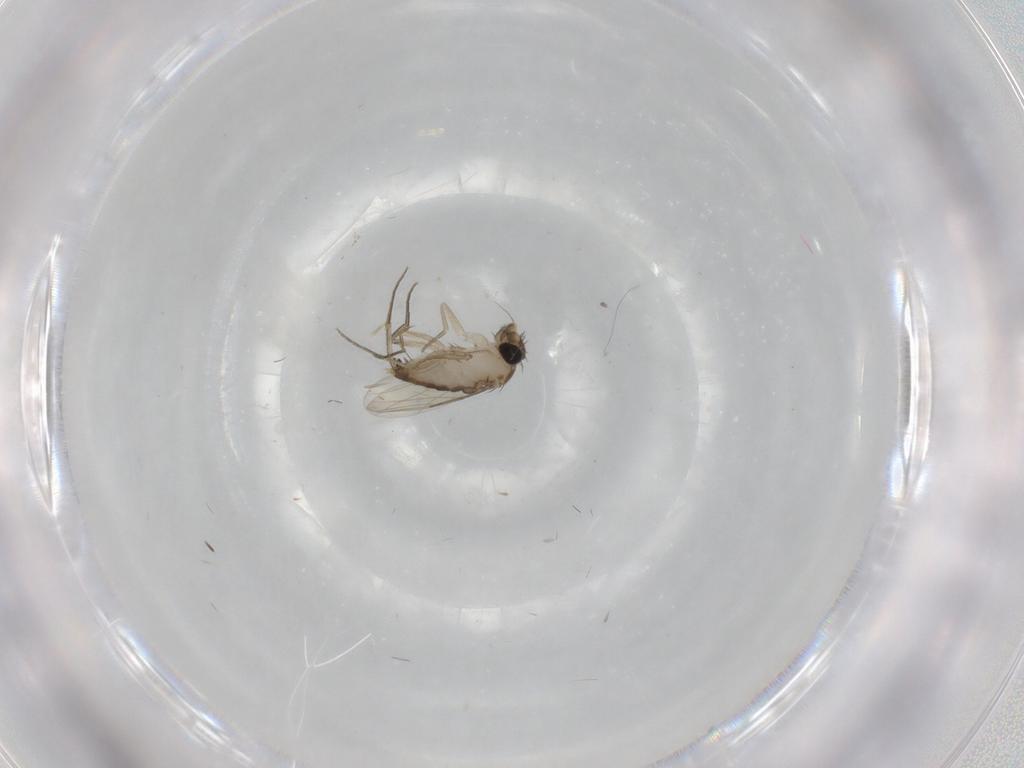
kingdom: Animalia
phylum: Arthropoda
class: Insecta
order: Diptera
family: Phoridae
